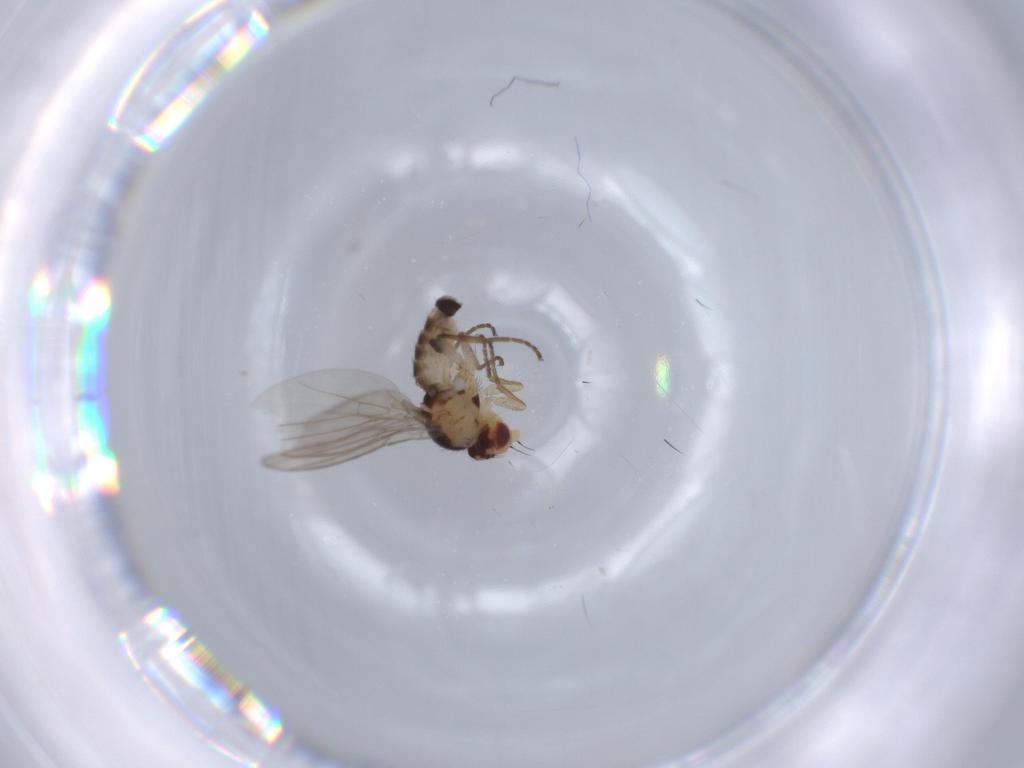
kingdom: Animalia
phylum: Arthropoda
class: Insecta
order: Diptera
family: Agromyzidae
